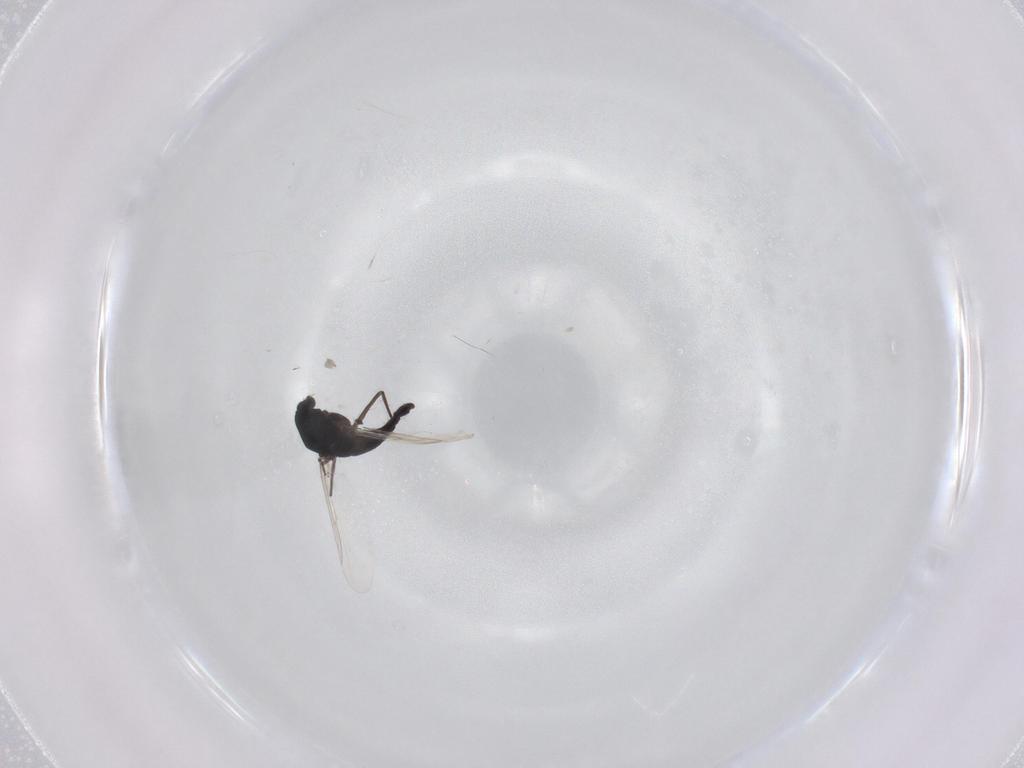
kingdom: Animalia
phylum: Arthropoda
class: Insecta
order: Diptera
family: Chironomidae
